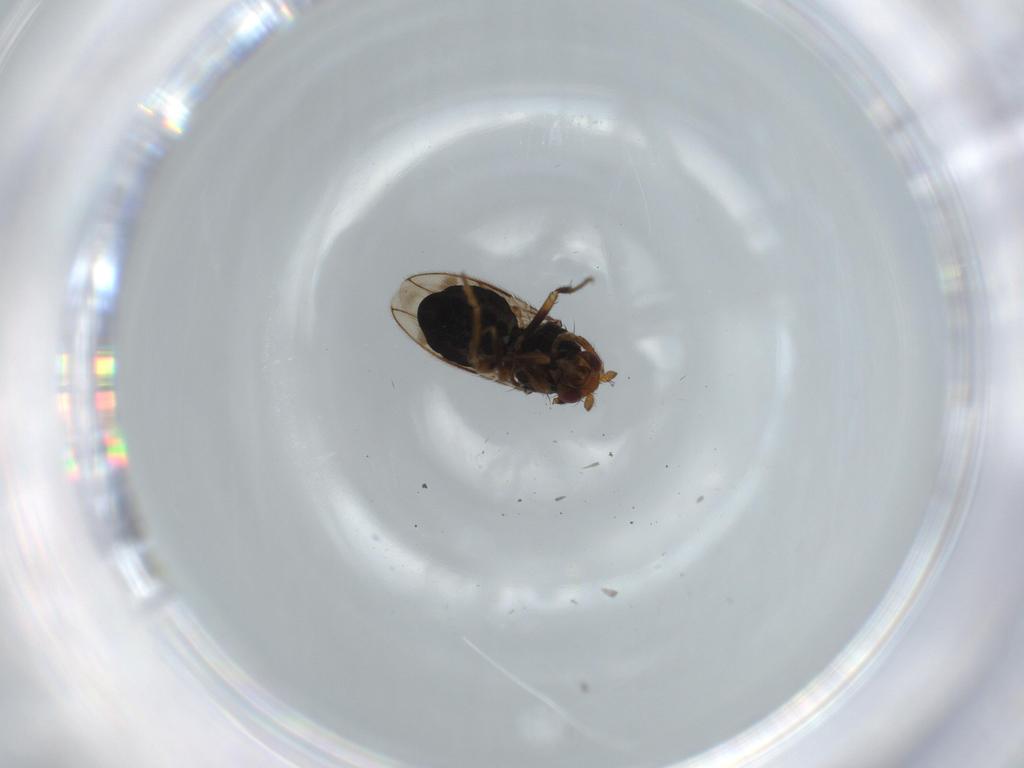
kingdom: Animalia
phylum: Arthropoda
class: Insecta
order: Diptera
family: Sphaeroceridae
